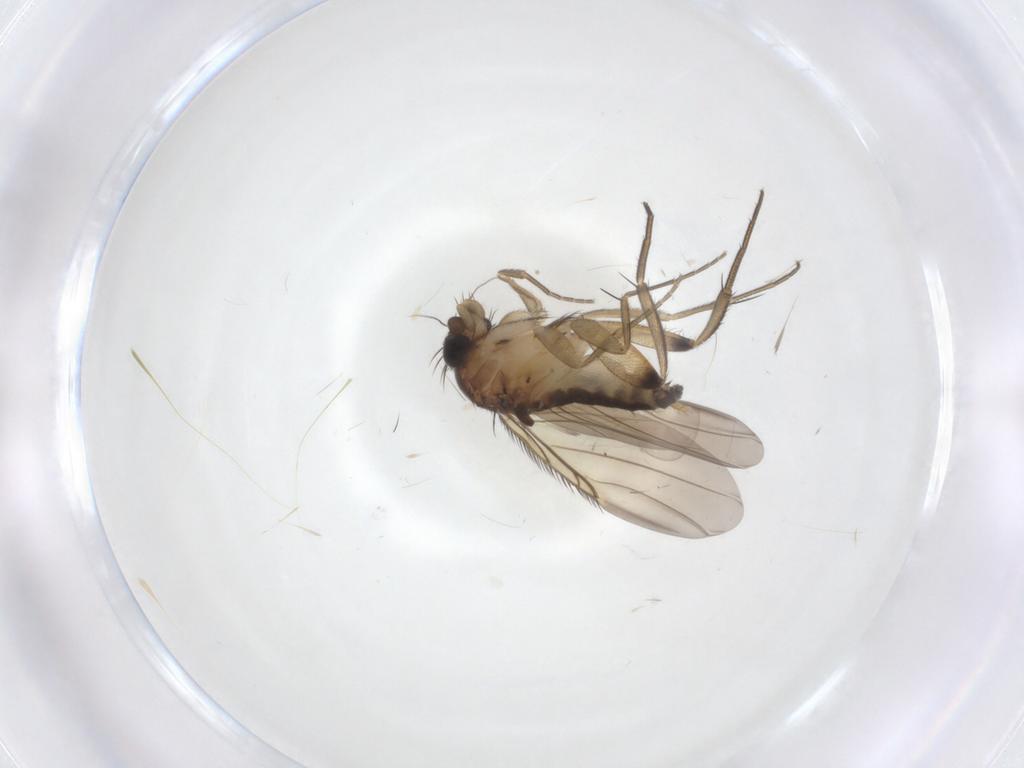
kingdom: Animalia
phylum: Arthropoda
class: Insecta
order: Diptera
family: Phoridae
